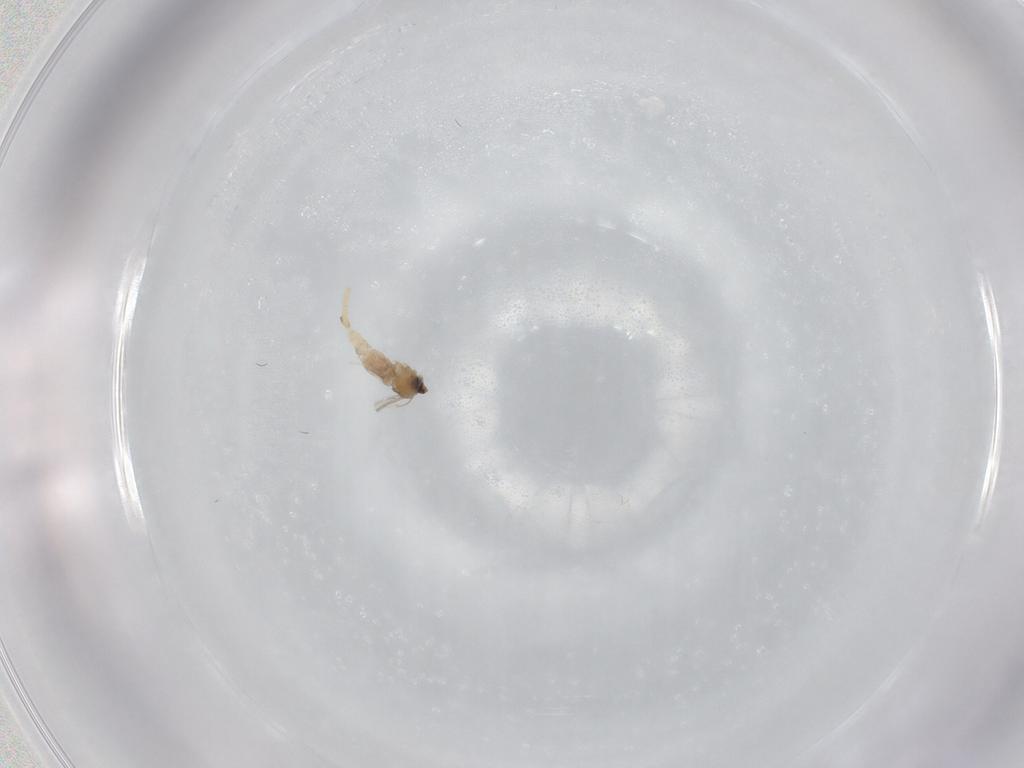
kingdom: Animalia
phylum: Arthropoda
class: Insecta
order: Diptera
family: Cecidomyiidae
